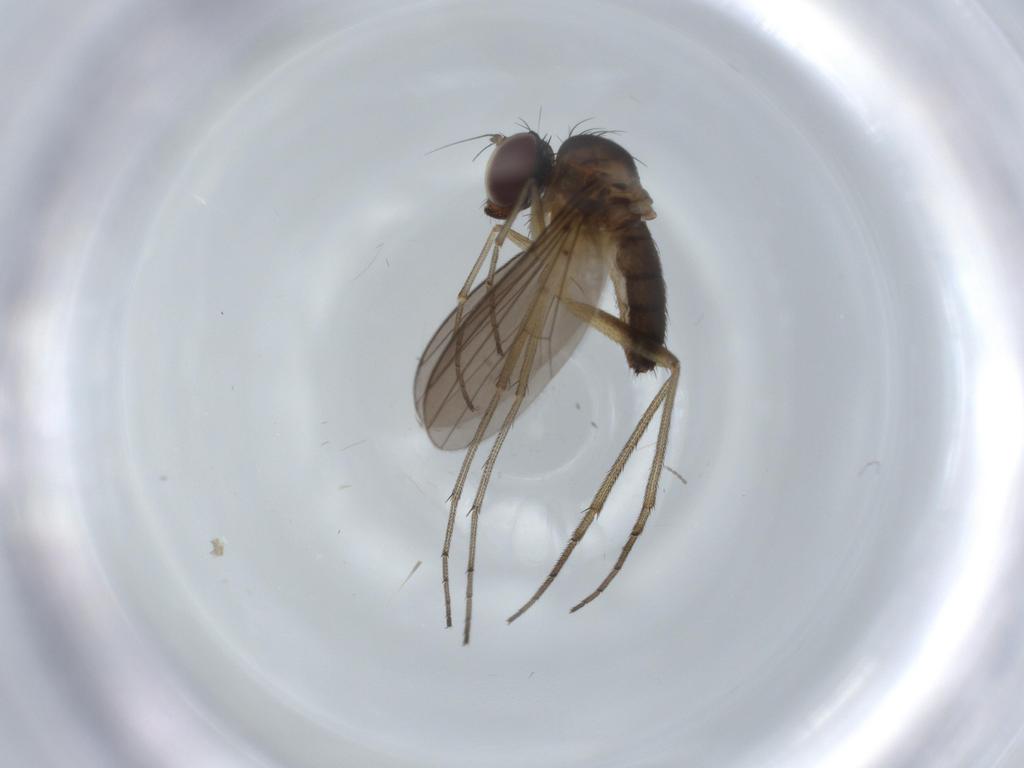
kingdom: Animalia
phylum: Arthropoda
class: Insecta
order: Diptera
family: Dolichopodidae
